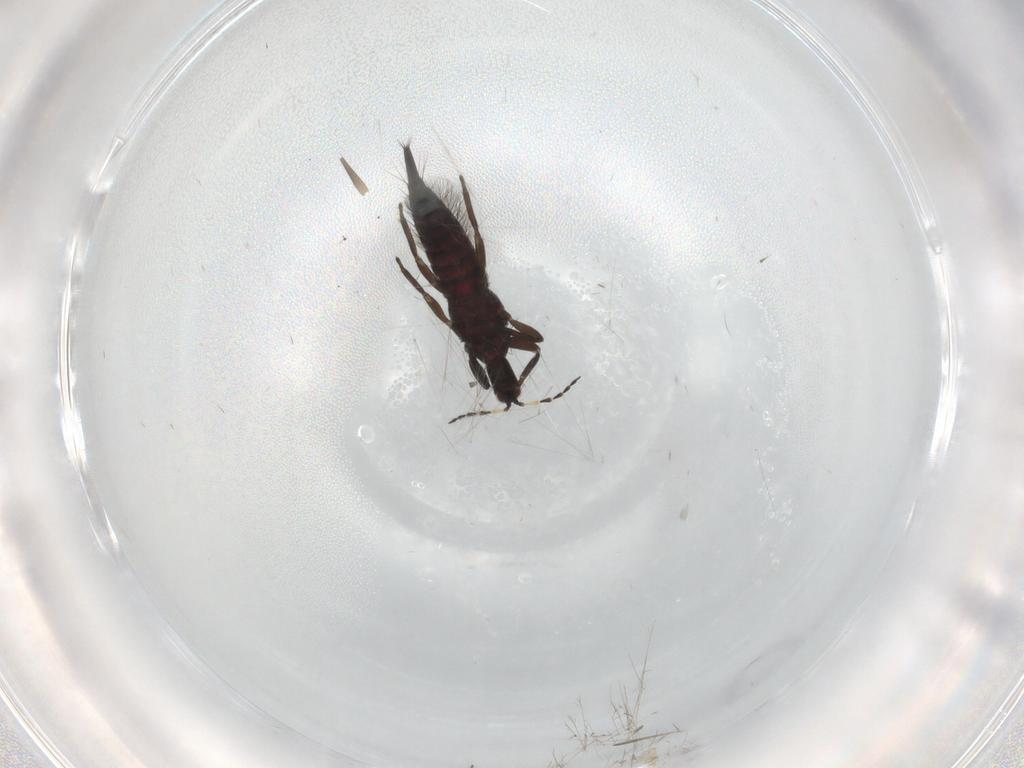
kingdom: Animalia
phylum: Arthropoda
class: Insecta
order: Thysanoptera
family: Phlaeothripidae
